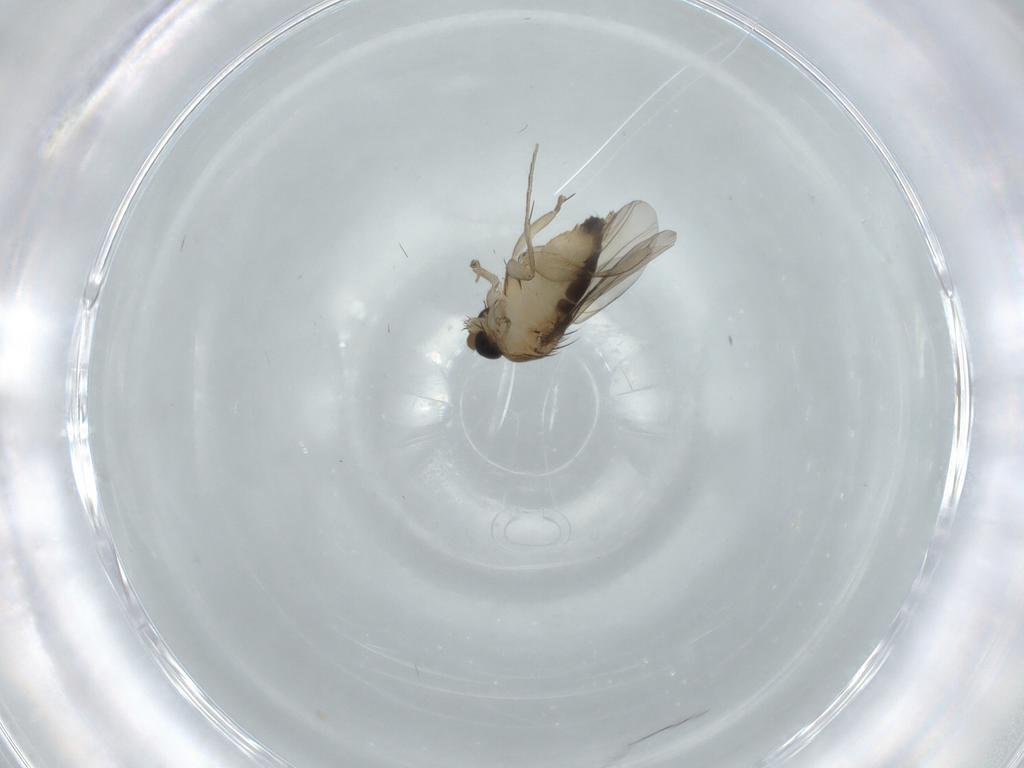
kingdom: Animalia
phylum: Arthropoda
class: Insecta
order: Diptera
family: Phoridae
